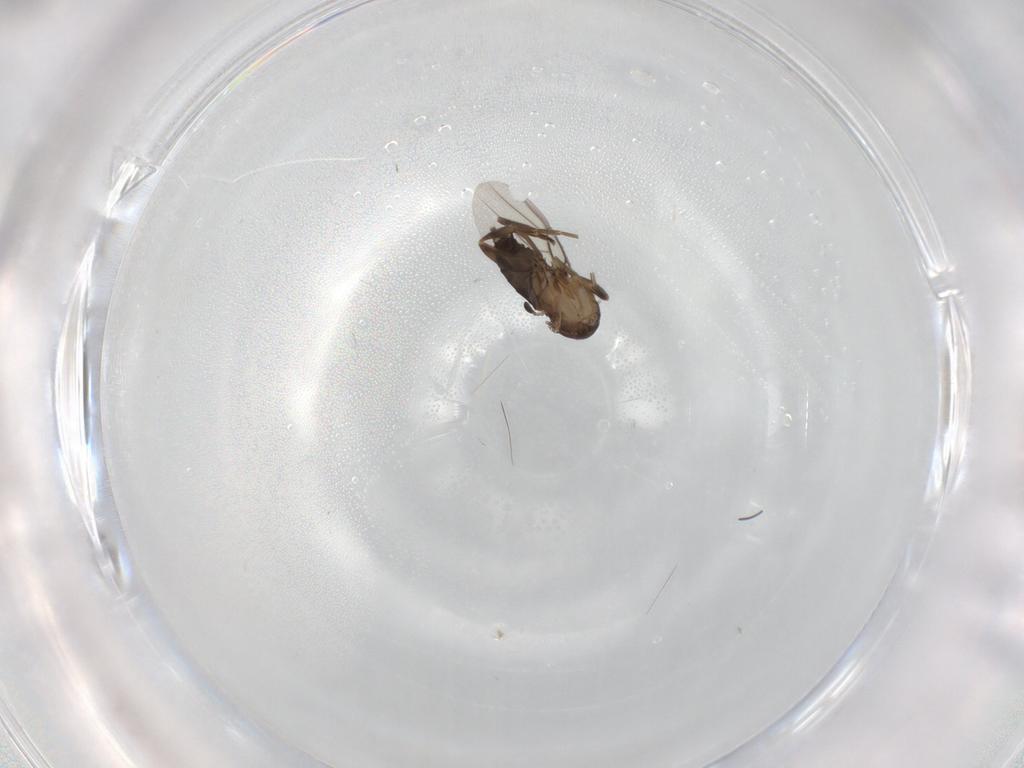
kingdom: Animalia
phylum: Arthropoda
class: Insecta
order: Diptera
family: Phoridae
